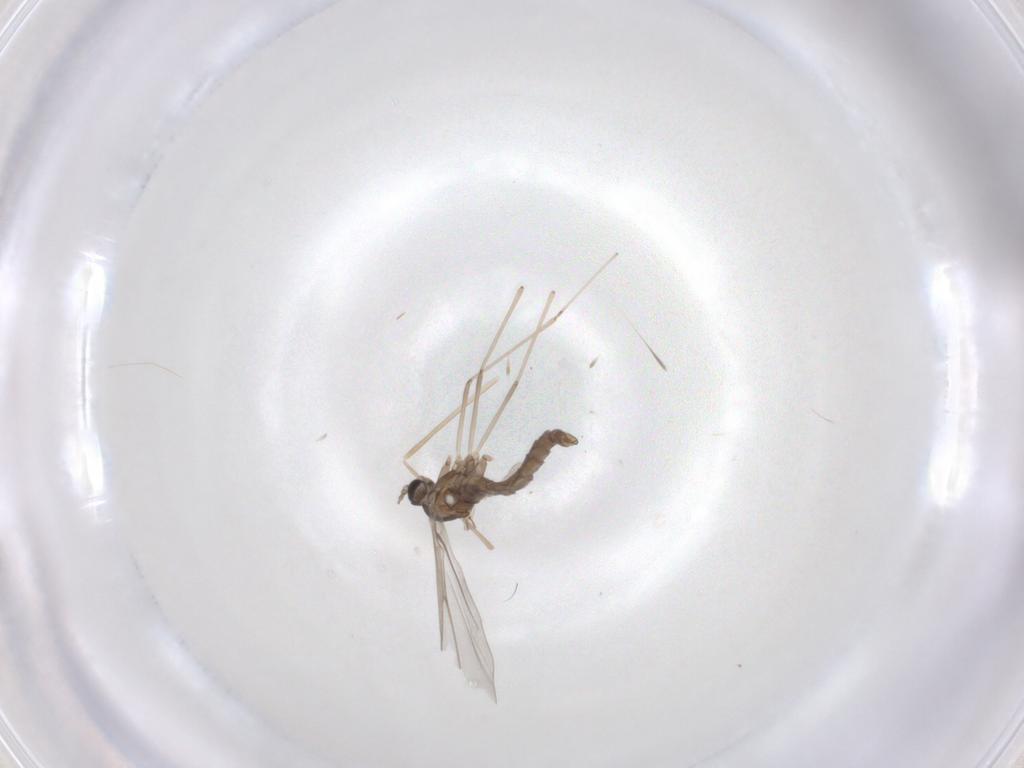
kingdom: Animalia
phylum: Arthropoda
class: Insecta
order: Diptera
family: Cecidomyiidae
